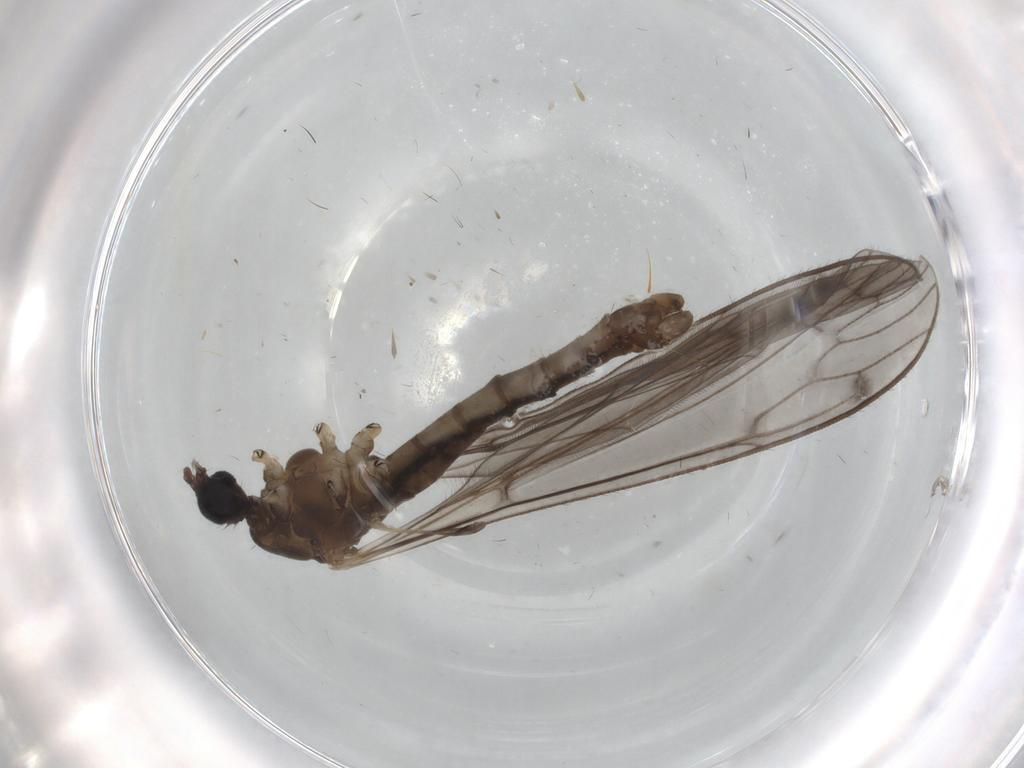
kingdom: Animalia
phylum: Arthropoda
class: Insecta
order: Diptera
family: Limoniidae
